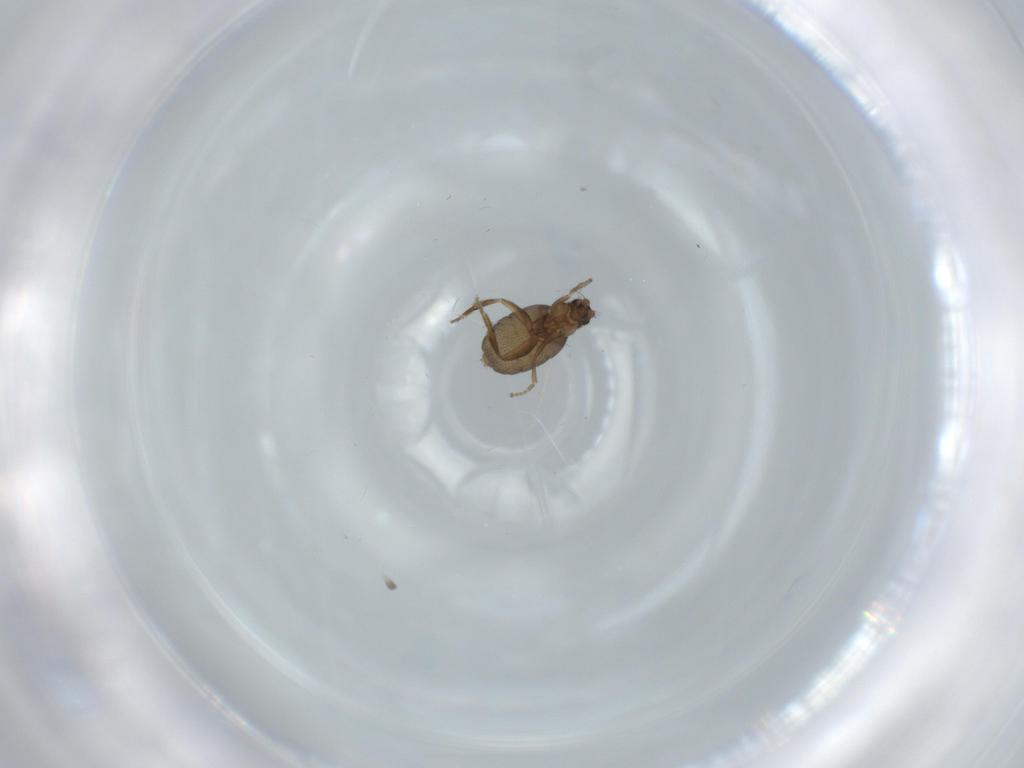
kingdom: Animalia
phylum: Arthropoda
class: Insecta
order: Diptera
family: Phoridae
